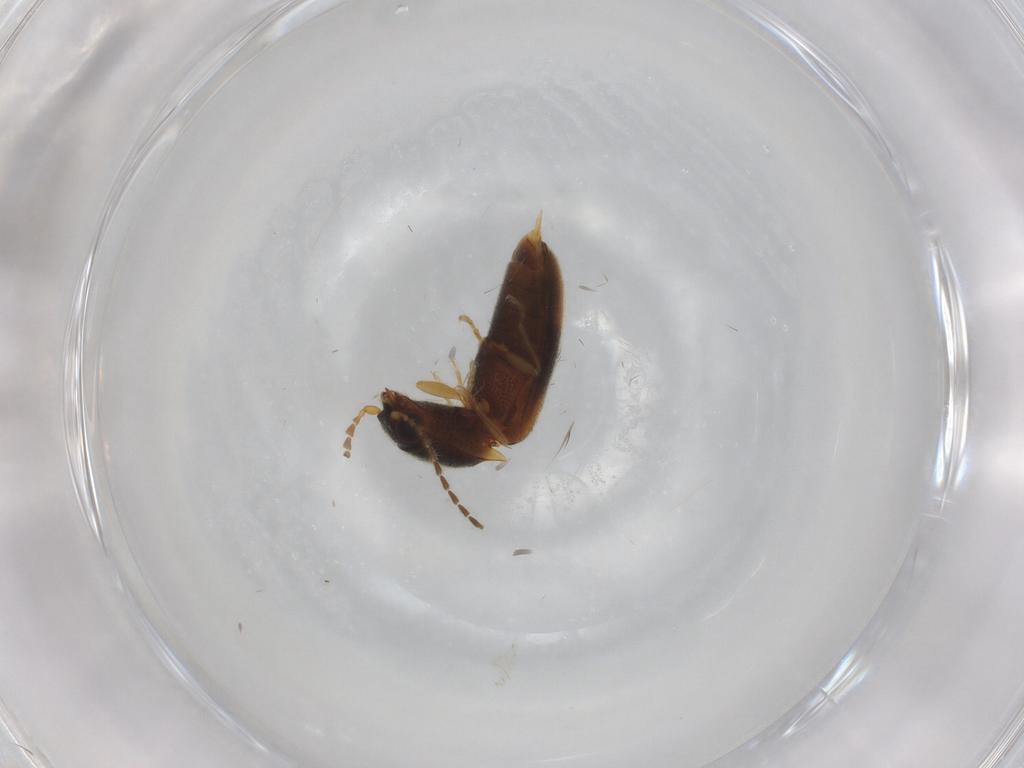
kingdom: Animalia
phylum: Arthropoda
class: Insecta
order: Coleoptera
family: Elateridae
